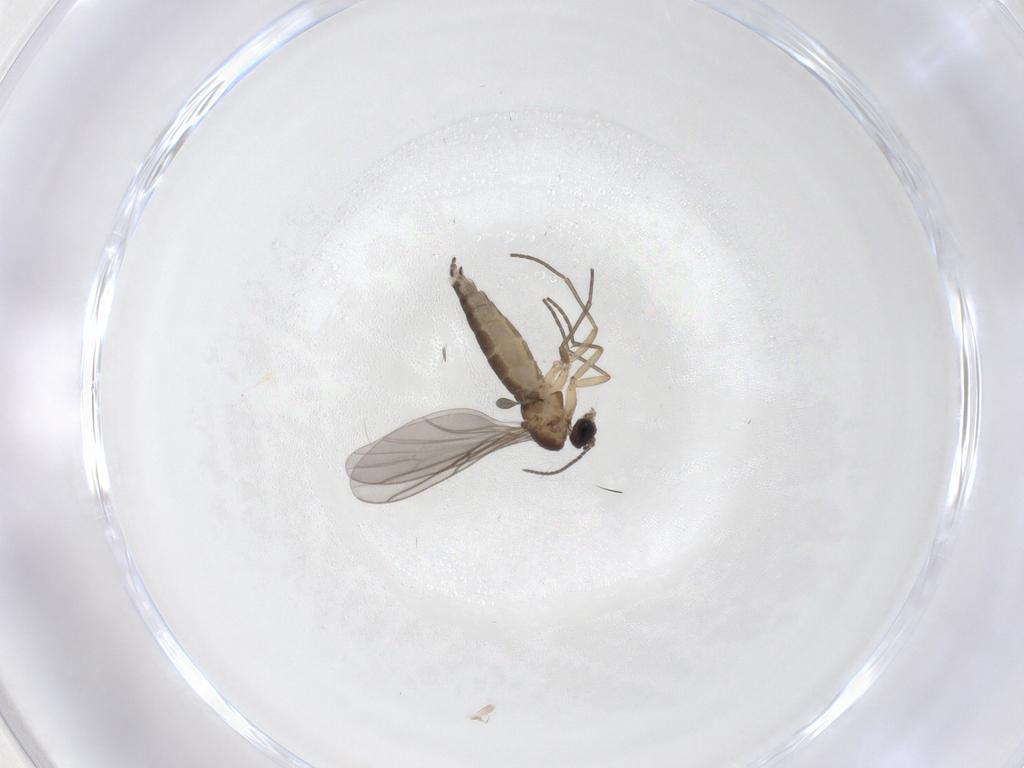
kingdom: Animalia
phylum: Arthropoda
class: Insecta
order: Diptera
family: Sciaridae
